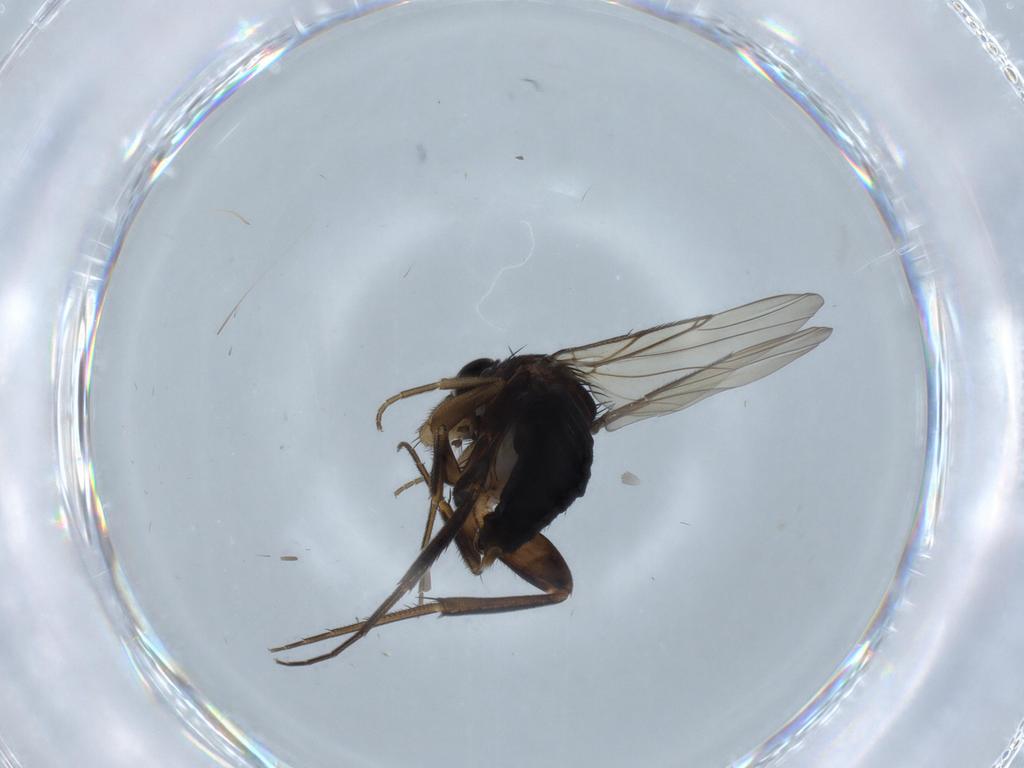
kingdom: Animalia
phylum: Arthropoda
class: Insecta
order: Diptera
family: Phoridae
